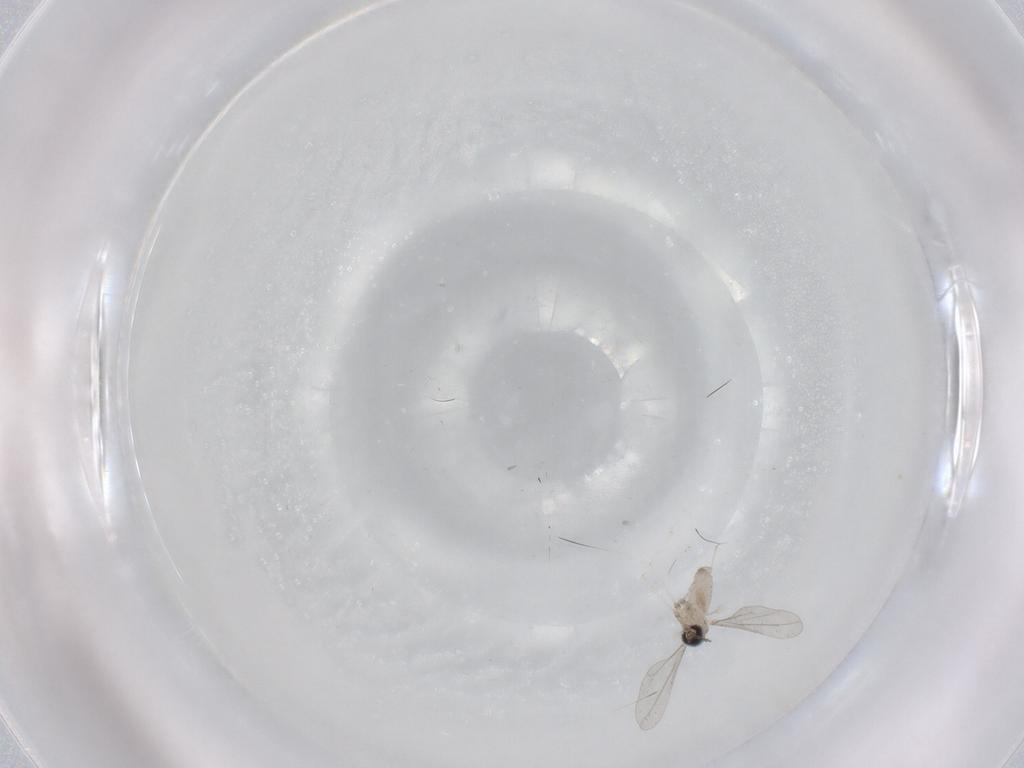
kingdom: Animalia
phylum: Arthropoda
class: Insecta
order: Diptera
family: Cecidomyiidae
